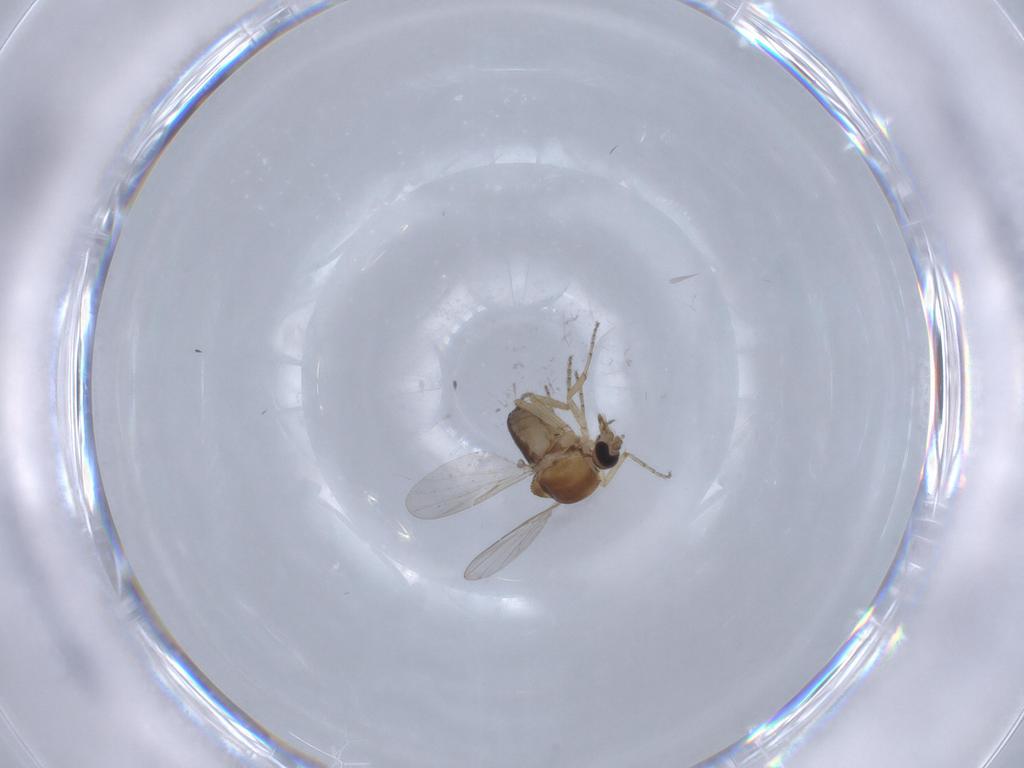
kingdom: Animalia
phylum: Arthropoda
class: Insecta
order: Diptera
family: Ceratopogonidae
